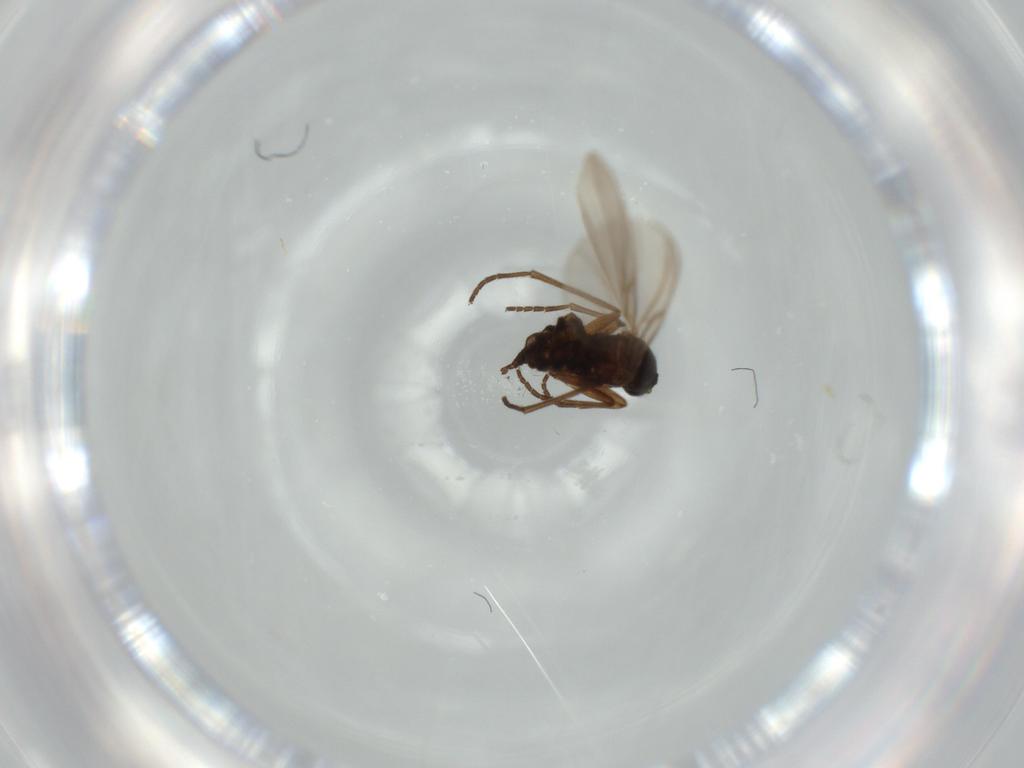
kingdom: Animalia
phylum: Arthropoda
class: Insecta
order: Diptera
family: Sciaridae
